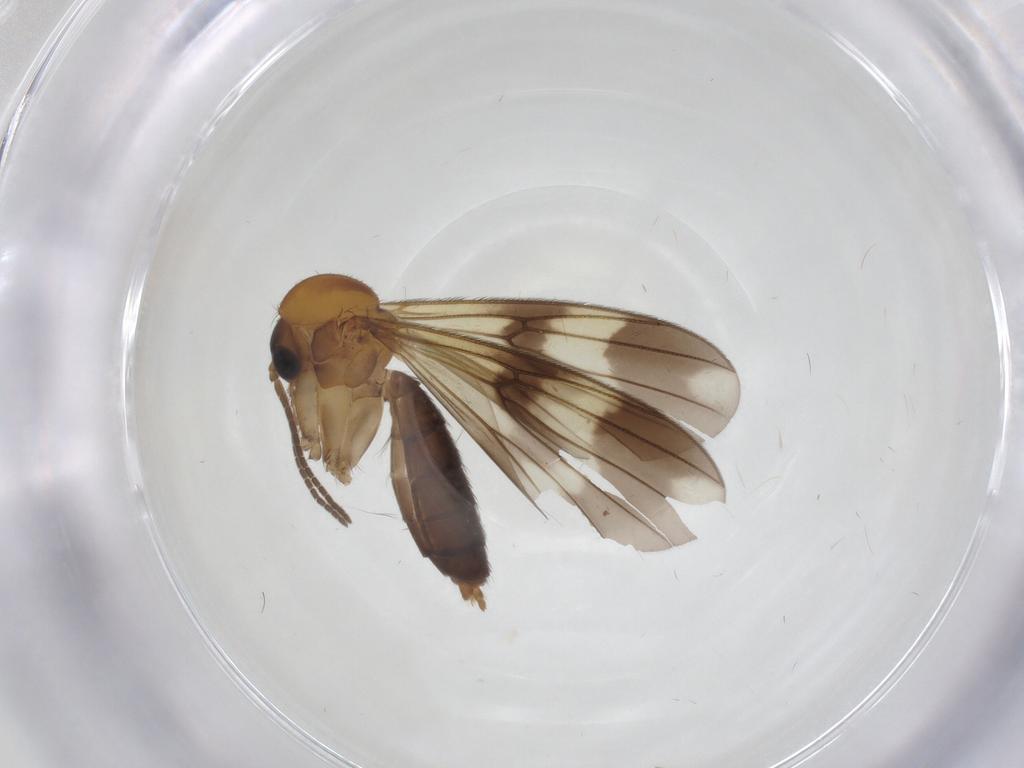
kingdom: Animalia
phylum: Arthropoda
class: Insecta
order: Diptera
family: Mycetophilidae
